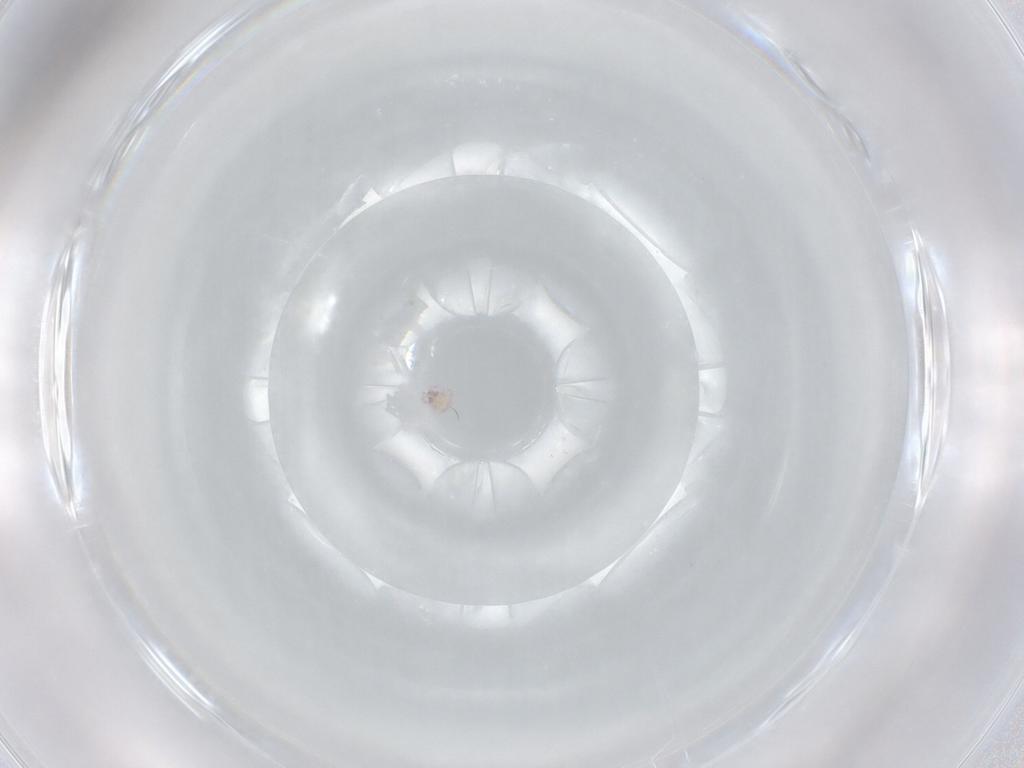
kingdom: Animalia
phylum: Arthropoda
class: Arachnida
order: Trombidiformes
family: Arrenuridae
